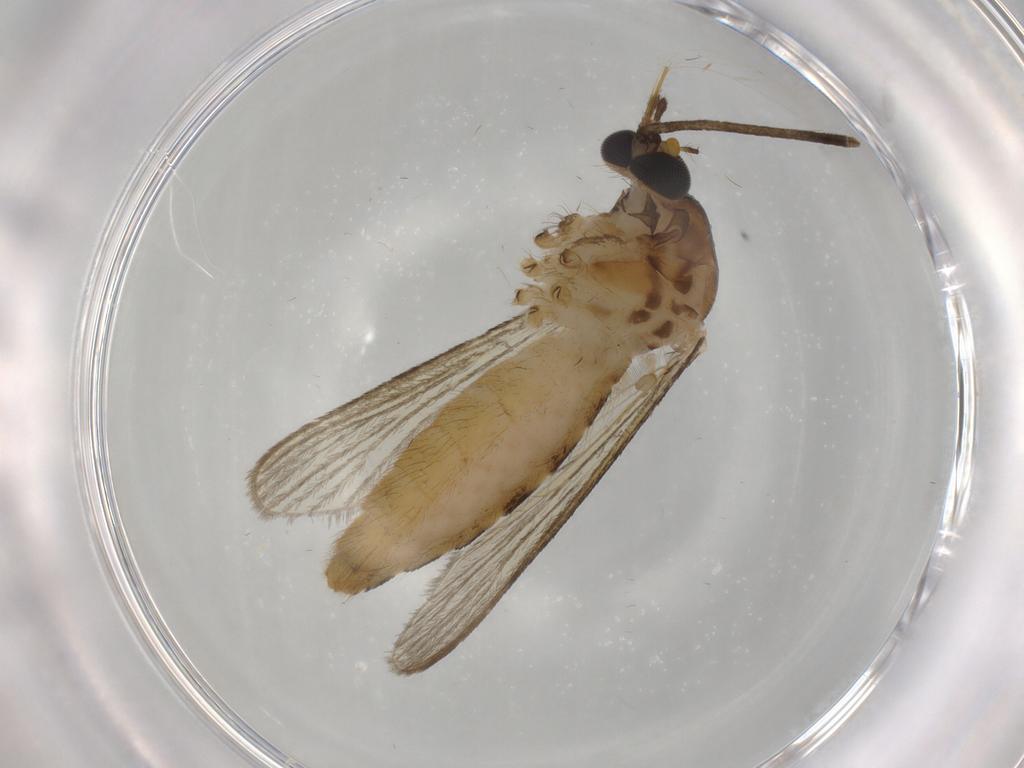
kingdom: Animalia
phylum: Arthropoda
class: Insecta
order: Diptera
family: Culicidae
